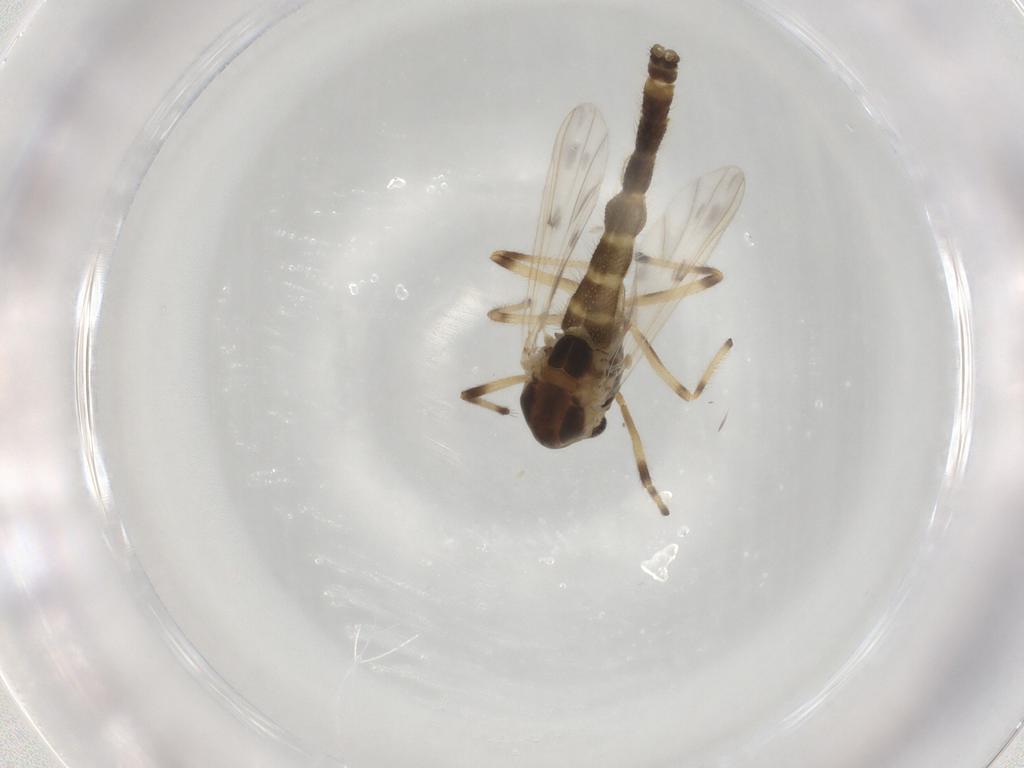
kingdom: Animalia
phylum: Arthropoda
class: Insecta
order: Diptera
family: Chironomidae
